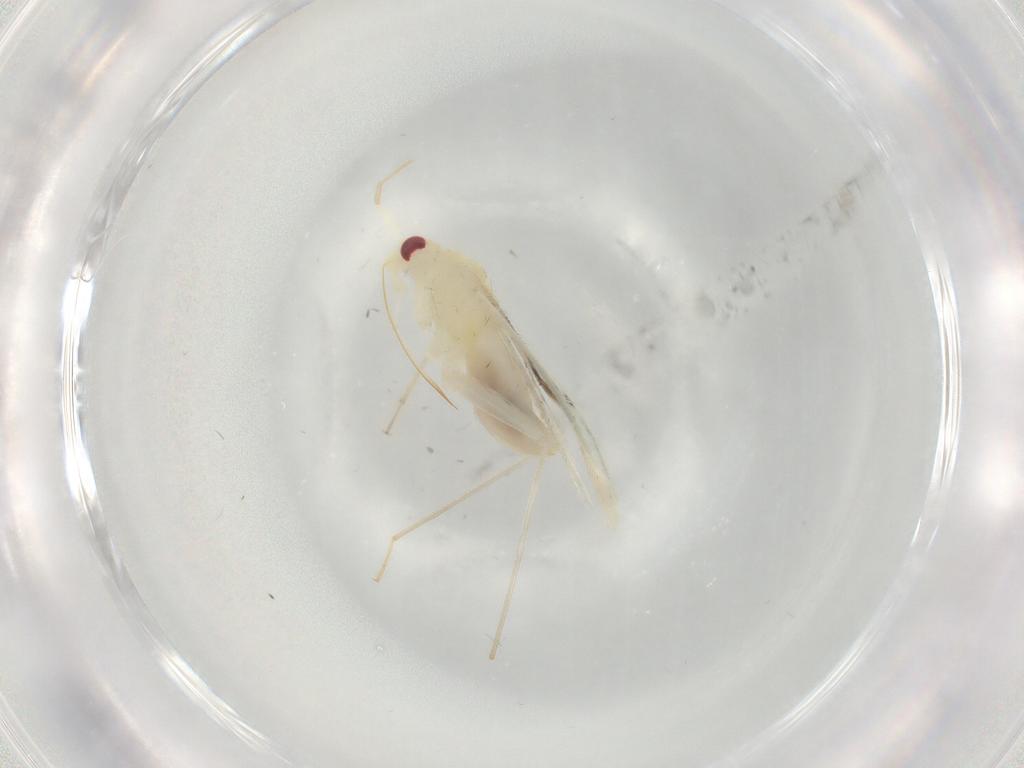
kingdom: Animalia
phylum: Arthropoda
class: Insecta
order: Hemiptera
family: Miridae
